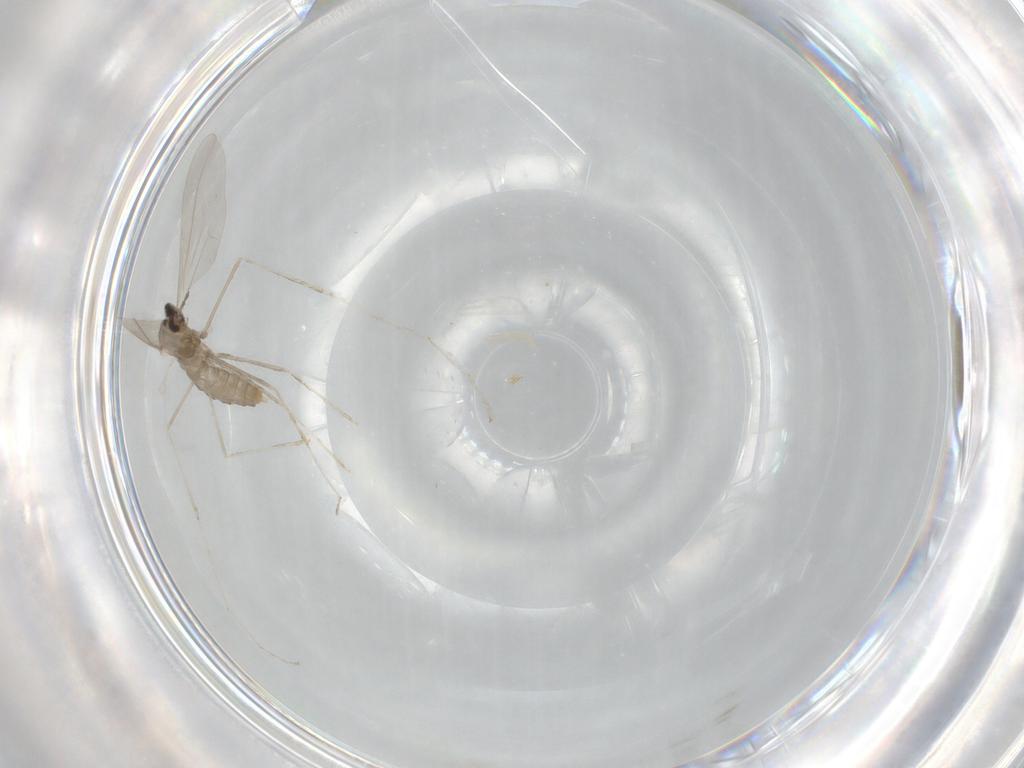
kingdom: Animalia
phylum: Arthropoda
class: Insecta
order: Diptera
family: Cecidomyiidae
